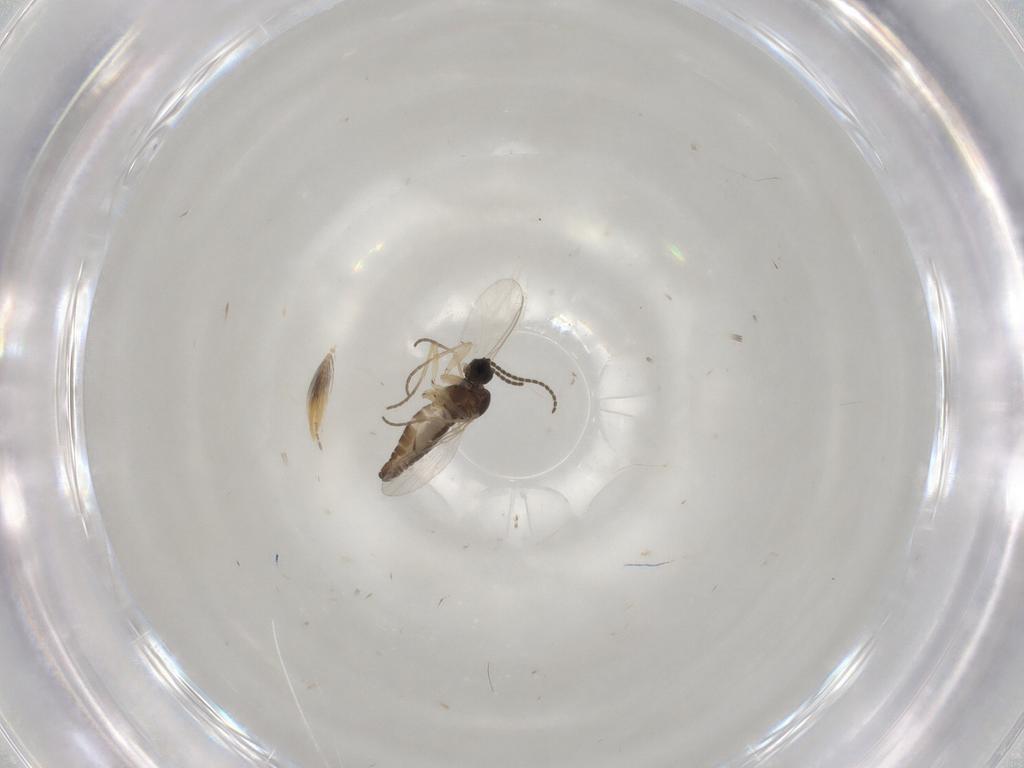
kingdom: Animalia
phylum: Arthropoda
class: Insecta
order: Diptera
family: Sciaridae
